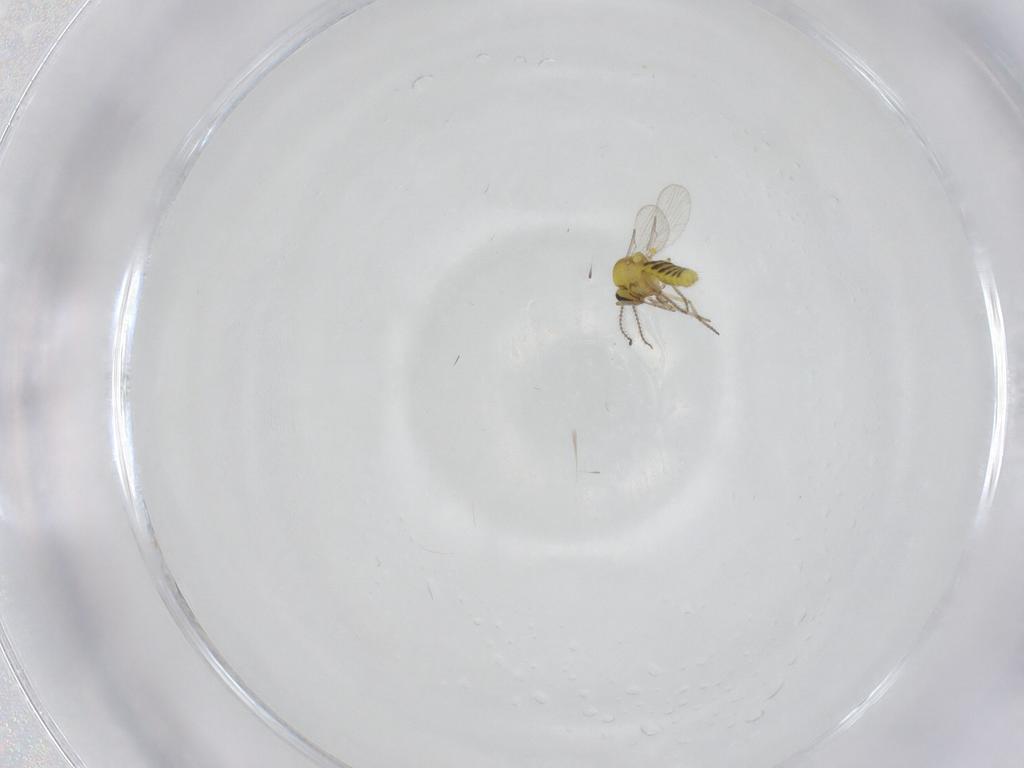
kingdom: Animalia
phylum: Arthropoda
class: Insecta
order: Diptera
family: Ceratopogonidae
